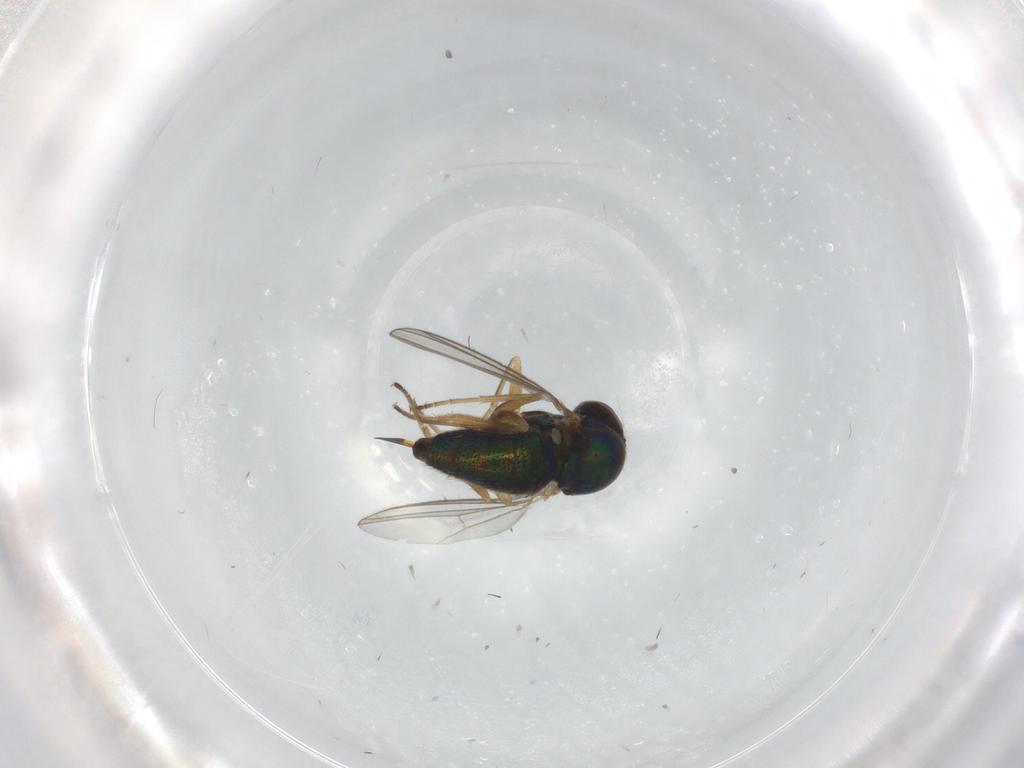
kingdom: Animalia
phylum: Arthropoda
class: Insecta
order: Diptera
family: Dolichopodidae
